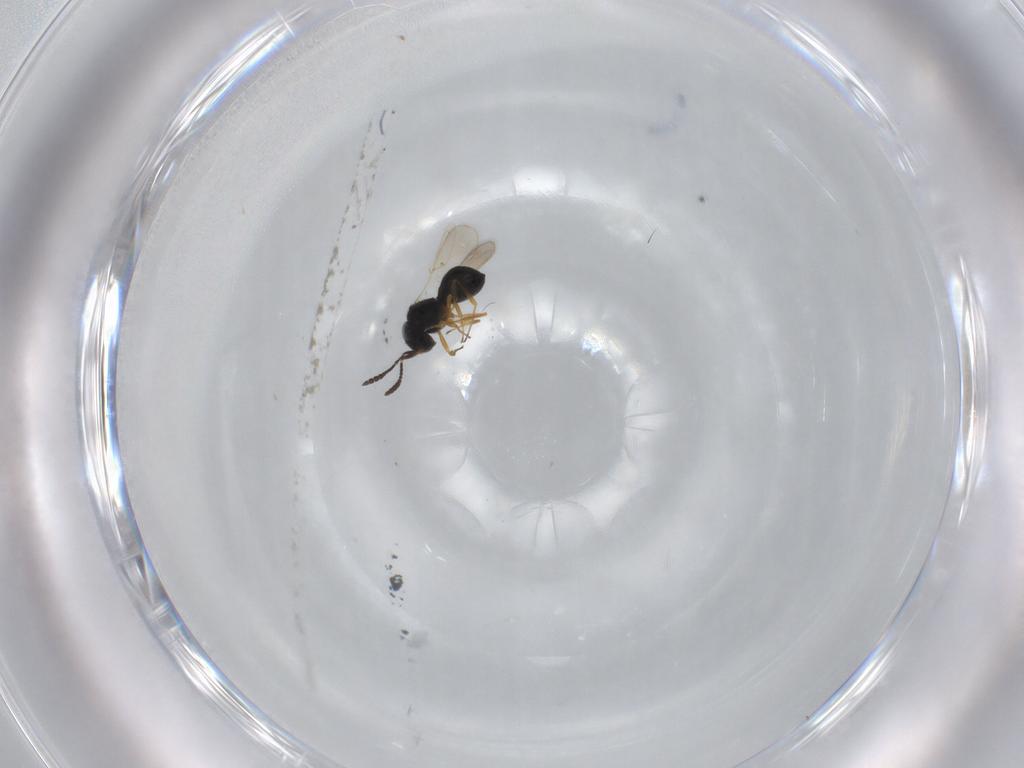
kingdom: Animalia
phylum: Arthropoda
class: Insecta
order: Hymenoptera
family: Scelionidae
